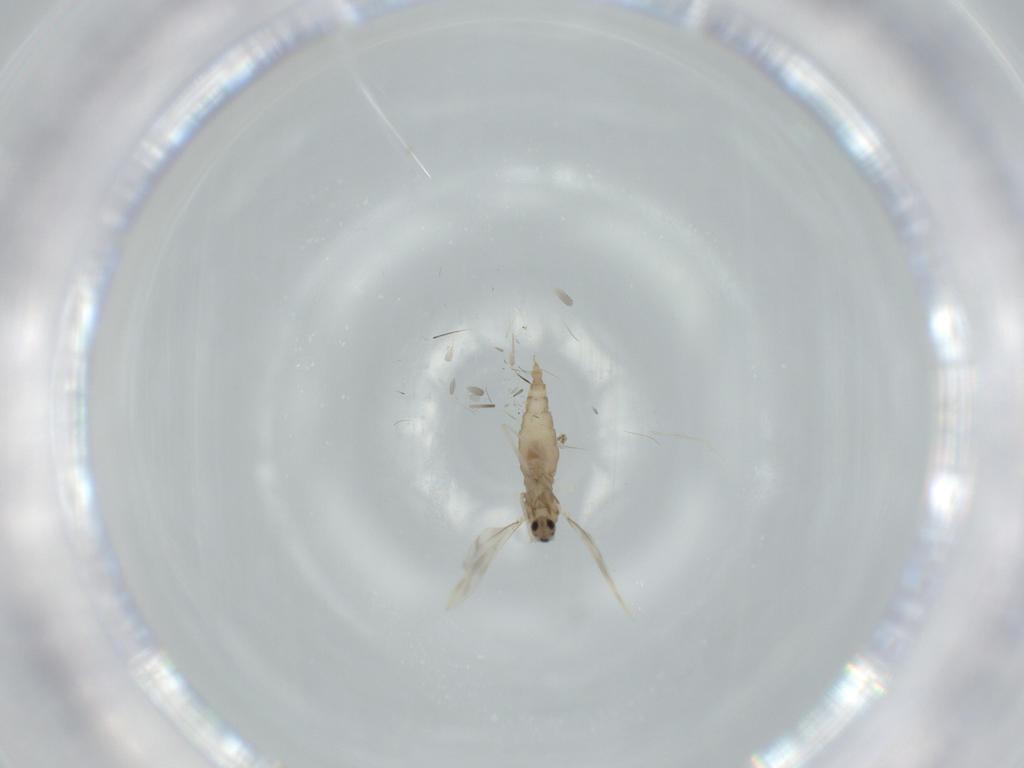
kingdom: Animalia
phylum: Arthropoda
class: Insecta
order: Diptera
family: Cecidomyiidae
